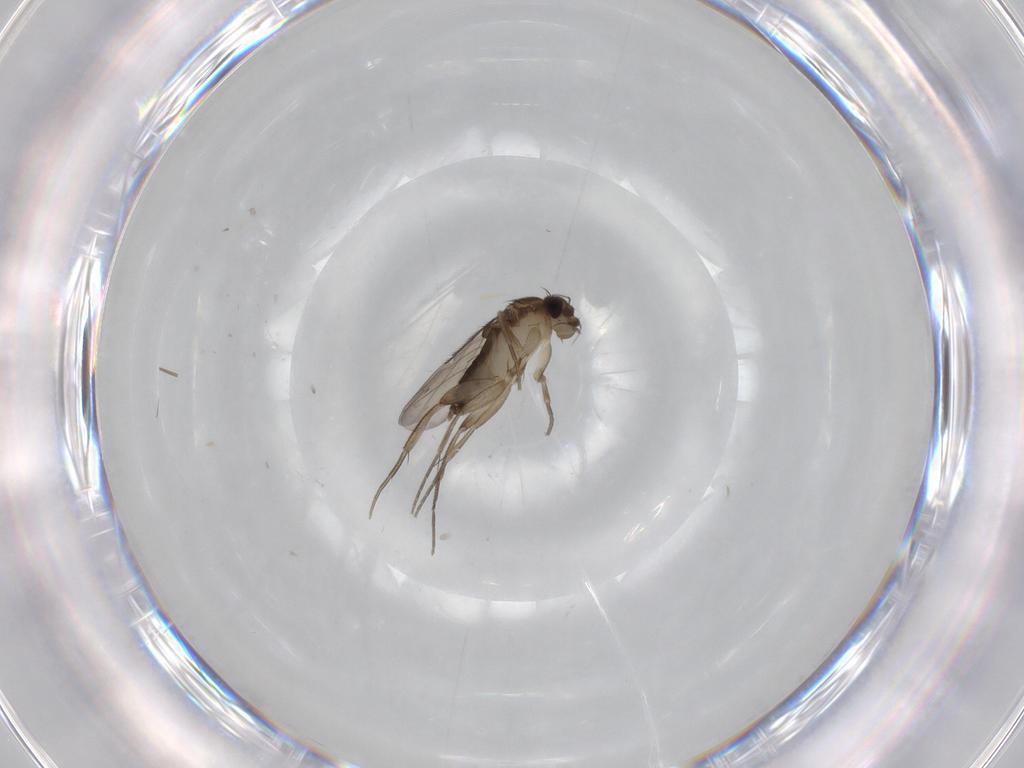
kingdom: Animalia
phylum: Arthropoda
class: Insecta
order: Diptera
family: Phoridae
